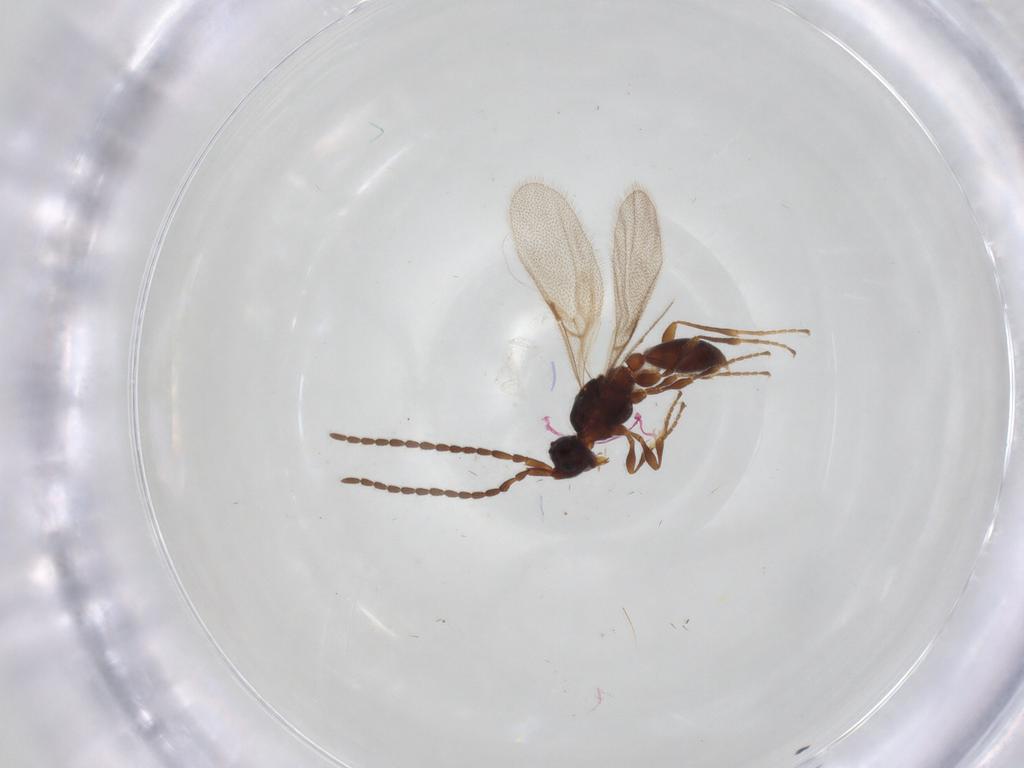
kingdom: Animalia
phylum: Arthropoda
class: Insecta
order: Hymenoptera
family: Diapriidae
